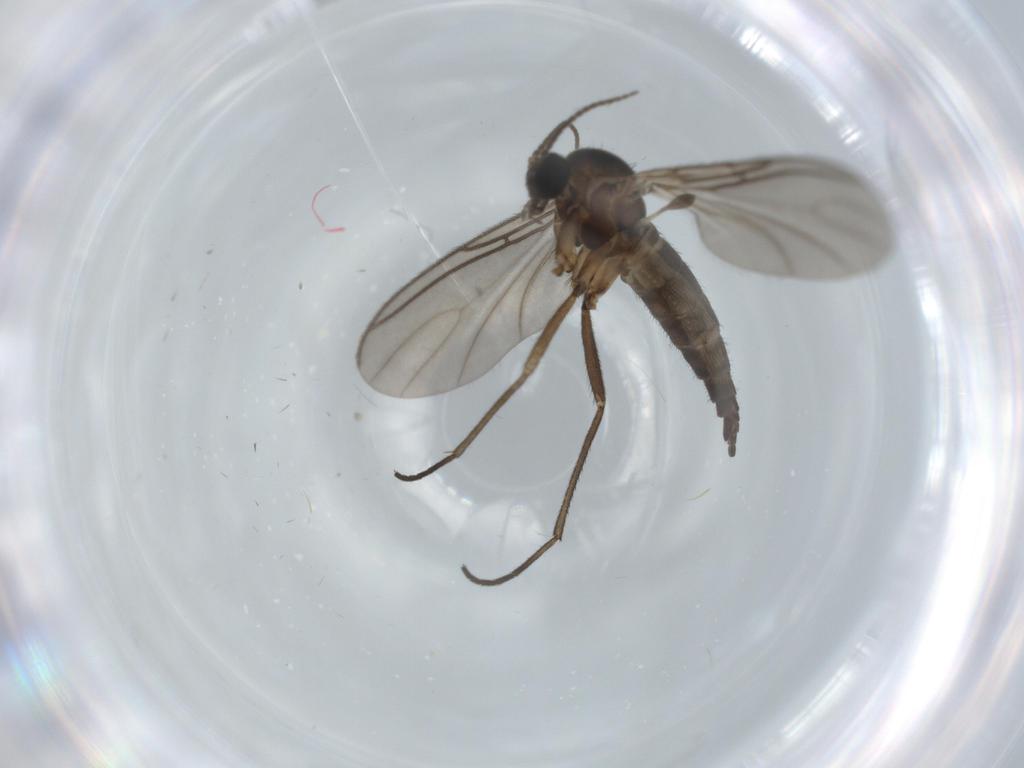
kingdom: Animalia
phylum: Arthropoda
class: Insecta
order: Diptera
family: Sciaridae
